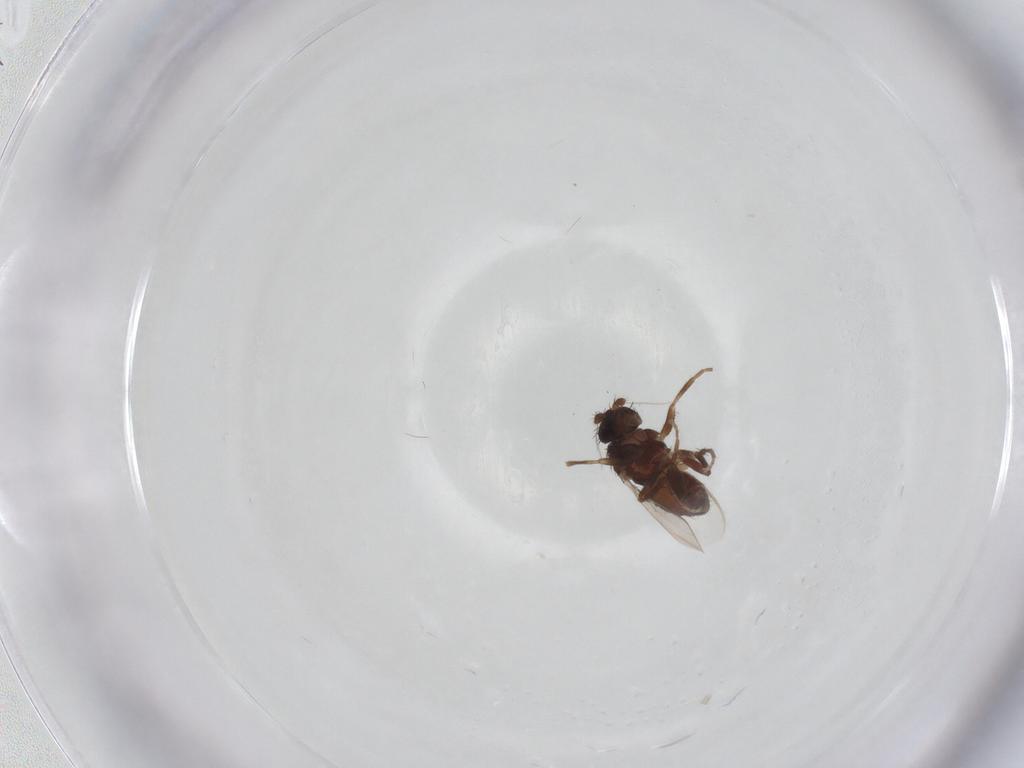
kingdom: Animalia
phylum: Arthropoda
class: Insecta
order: Diptera
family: Sphaeroceridae
